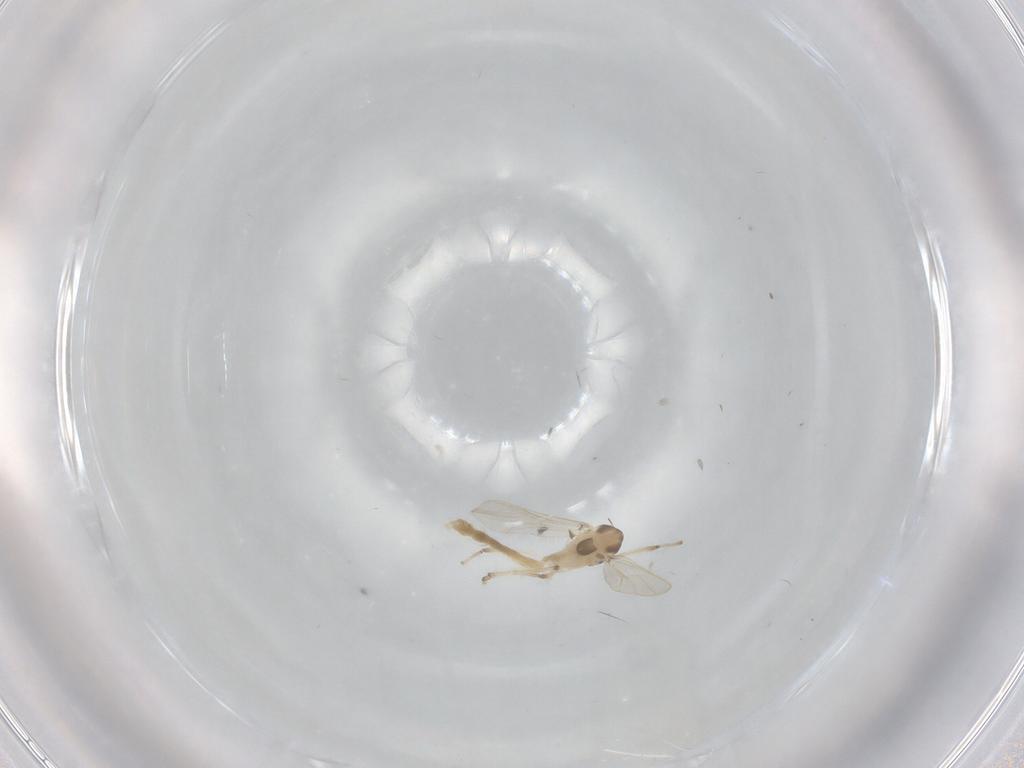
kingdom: Animalia
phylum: Arthropoda
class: Insecta
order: Diptera
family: Chironomidae
